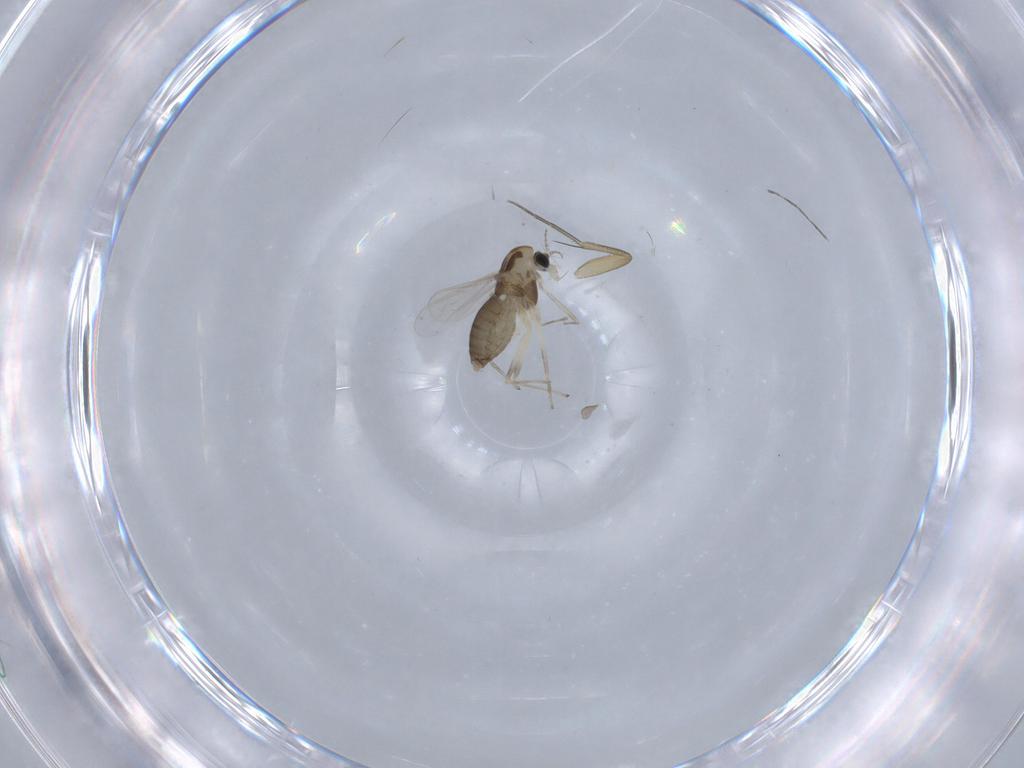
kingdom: Animalia
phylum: Arthropoda
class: Insecta
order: Diptera
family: Chironomidae
